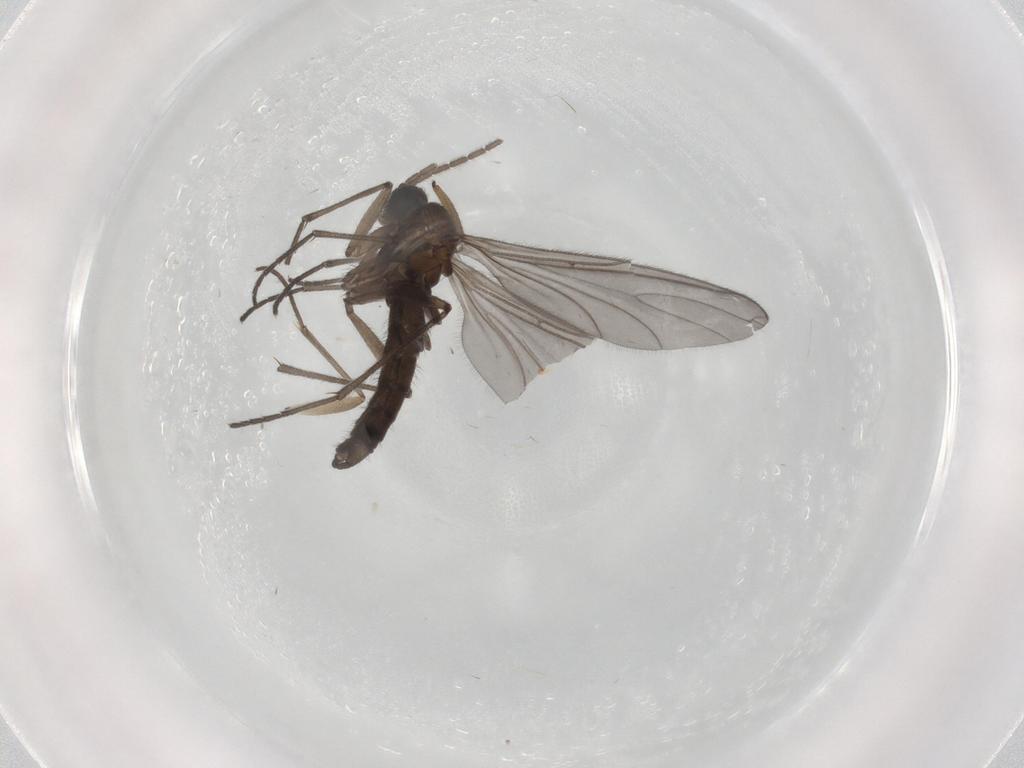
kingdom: Animalia
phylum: Arthropoda
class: Insecta
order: Diptera
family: Sciaridae
